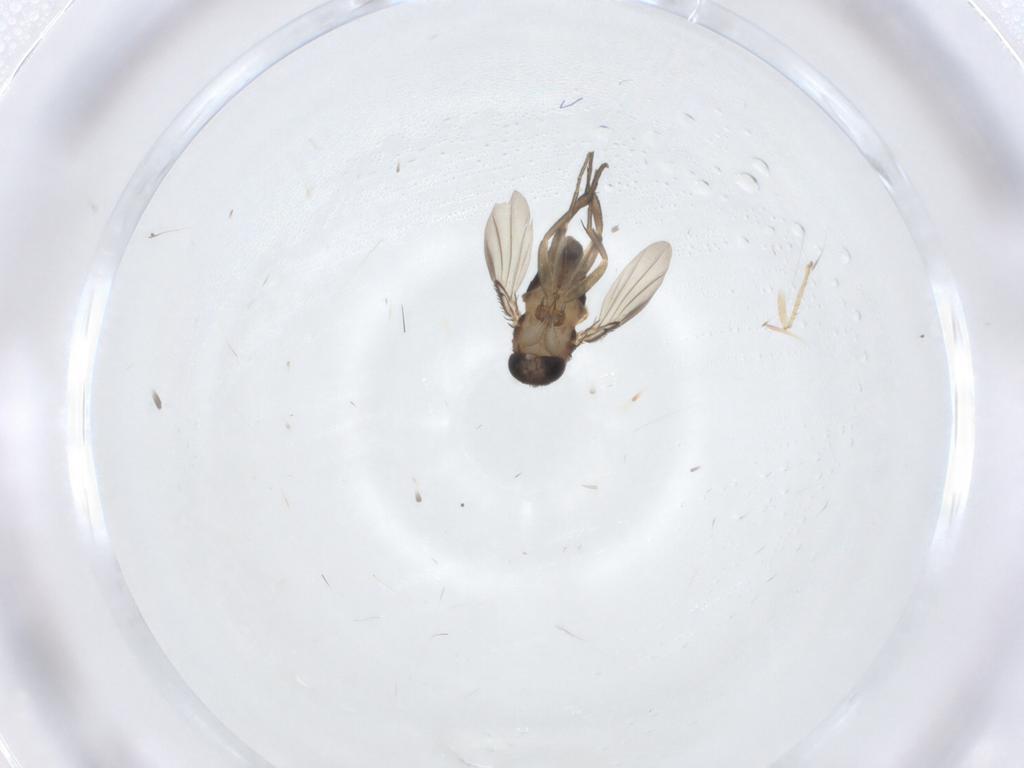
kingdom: Animalia
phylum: Arthropoda
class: Insecta
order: Diptera
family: Phoridae
